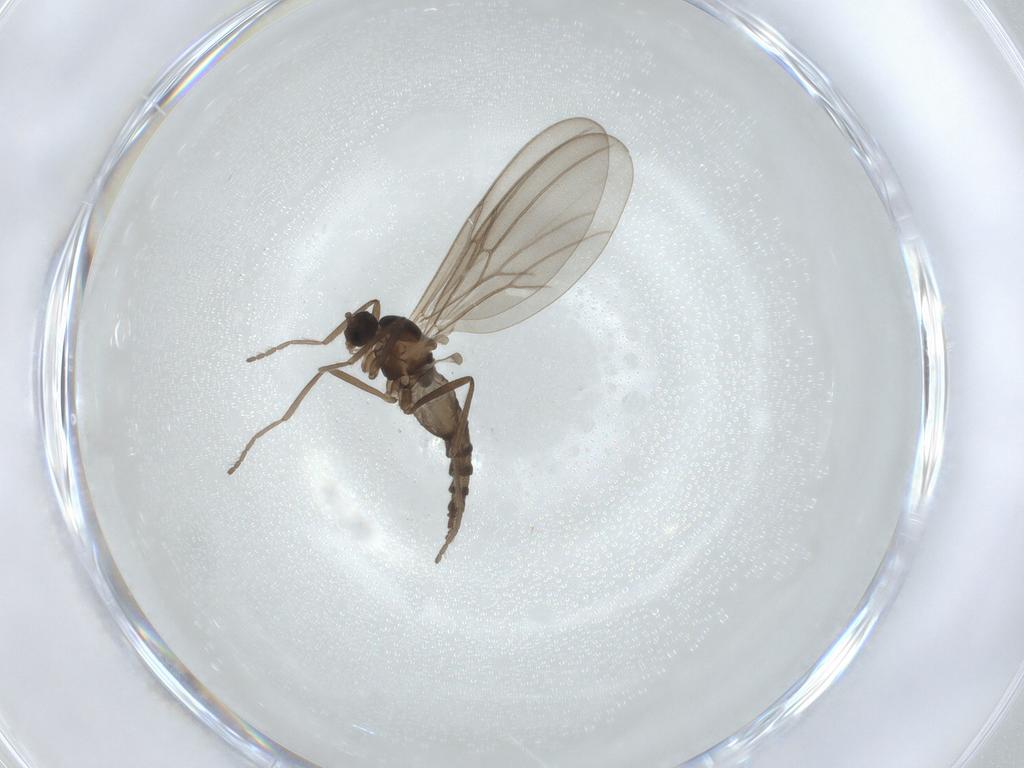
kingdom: Animalia
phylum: Arthropoda
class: Insecta
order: Diptera
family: Cecidomyiidae
